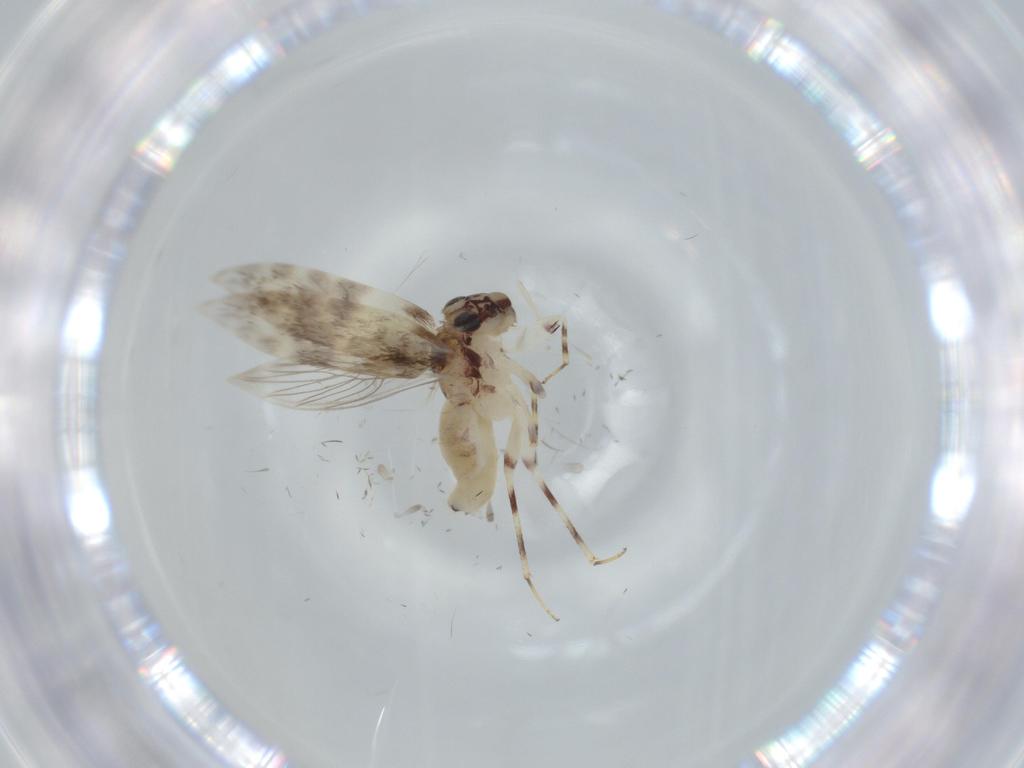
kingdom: Animalia
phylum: Arthropoda
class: Insecta
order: Psocodea
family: Lepidopsocidae
